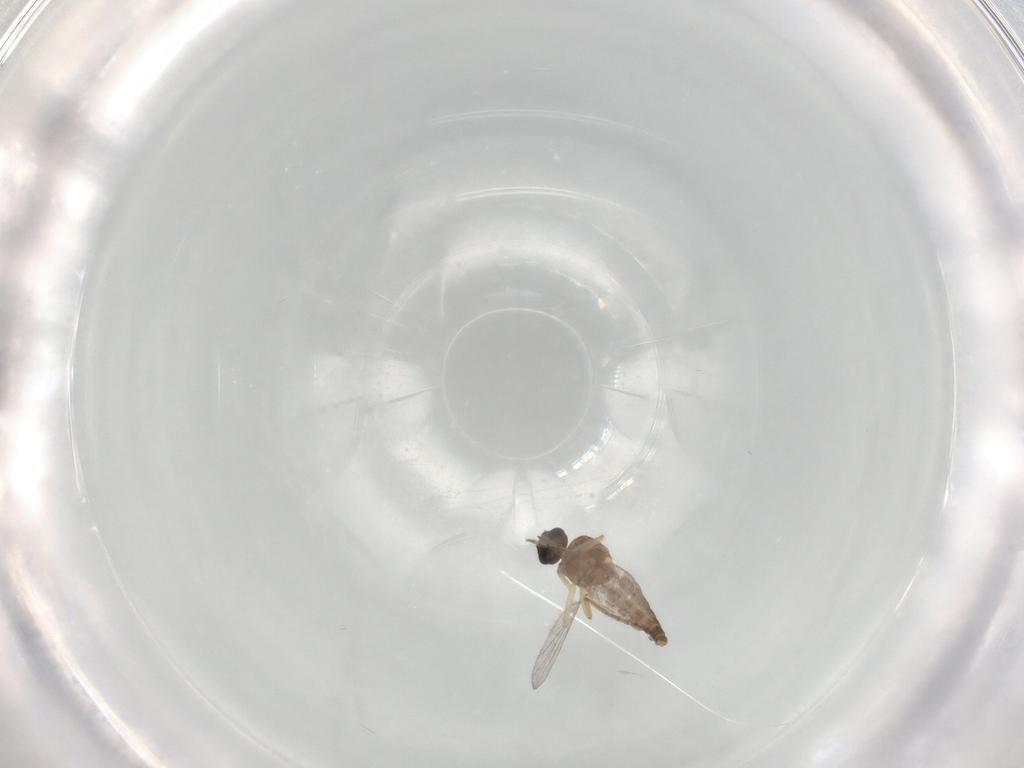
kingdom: Animalia
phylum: Arthropoda
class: Insecta
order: Diptera
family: Ceratopogonidae
